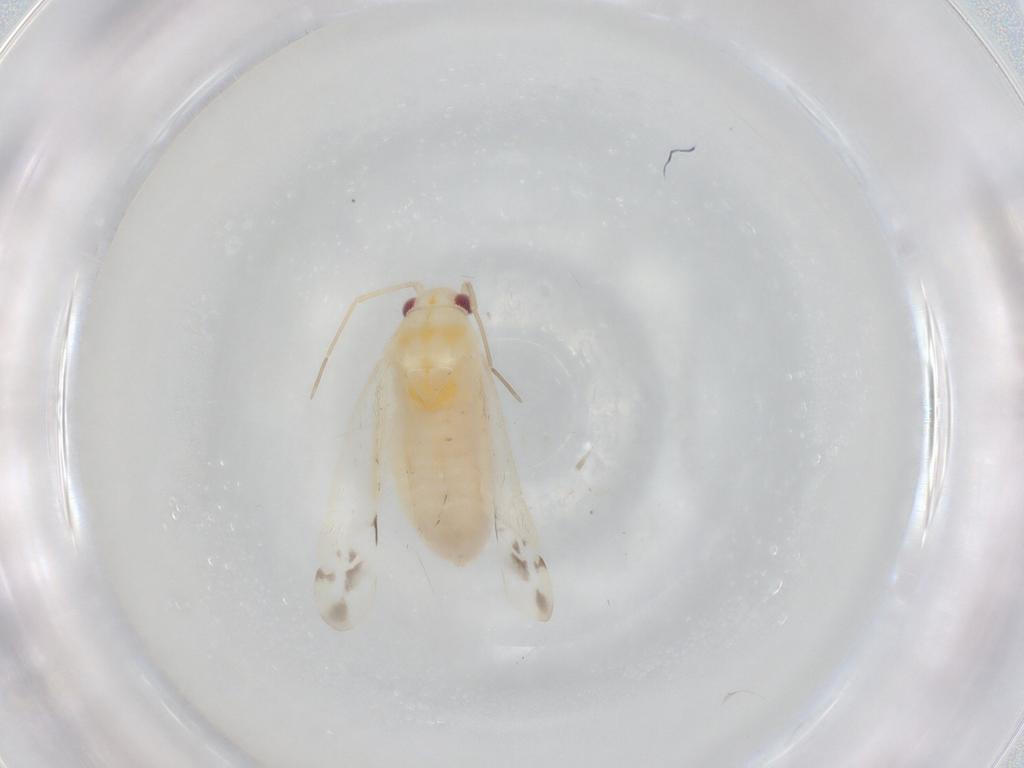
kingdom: Animalia
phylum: Arthropoda
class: Insecta
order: Hemiptera
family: Miridae
